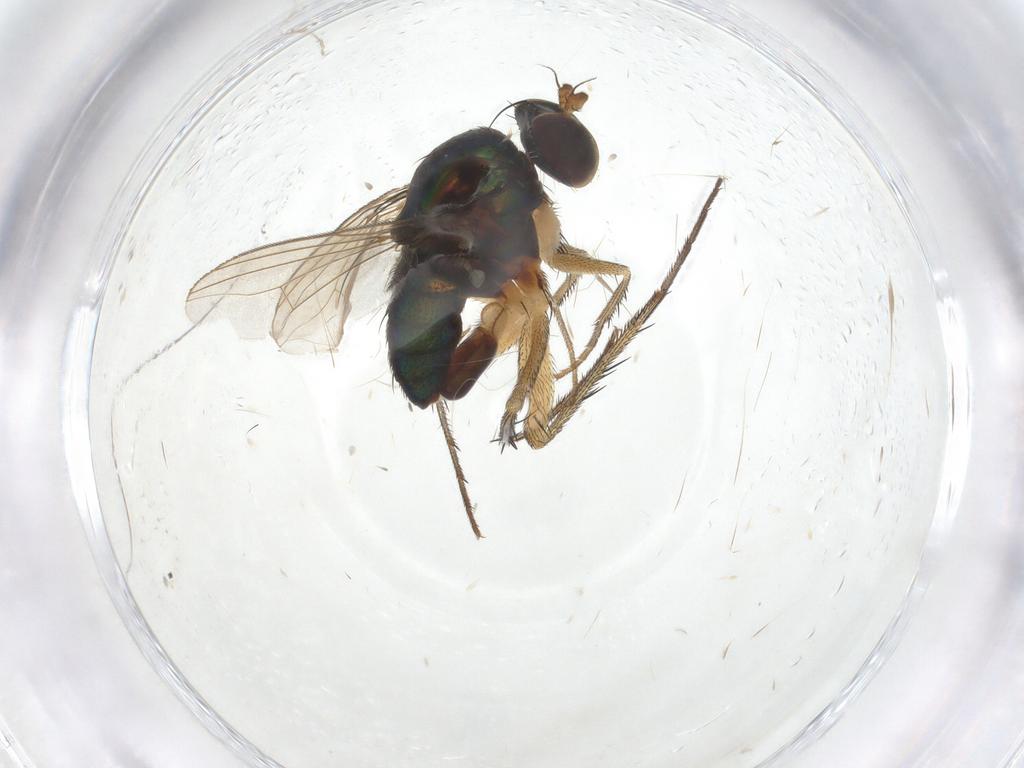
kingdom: Animalia
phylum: Arthropoda
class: Insecta
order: Diptera
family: Dolichopodidae
